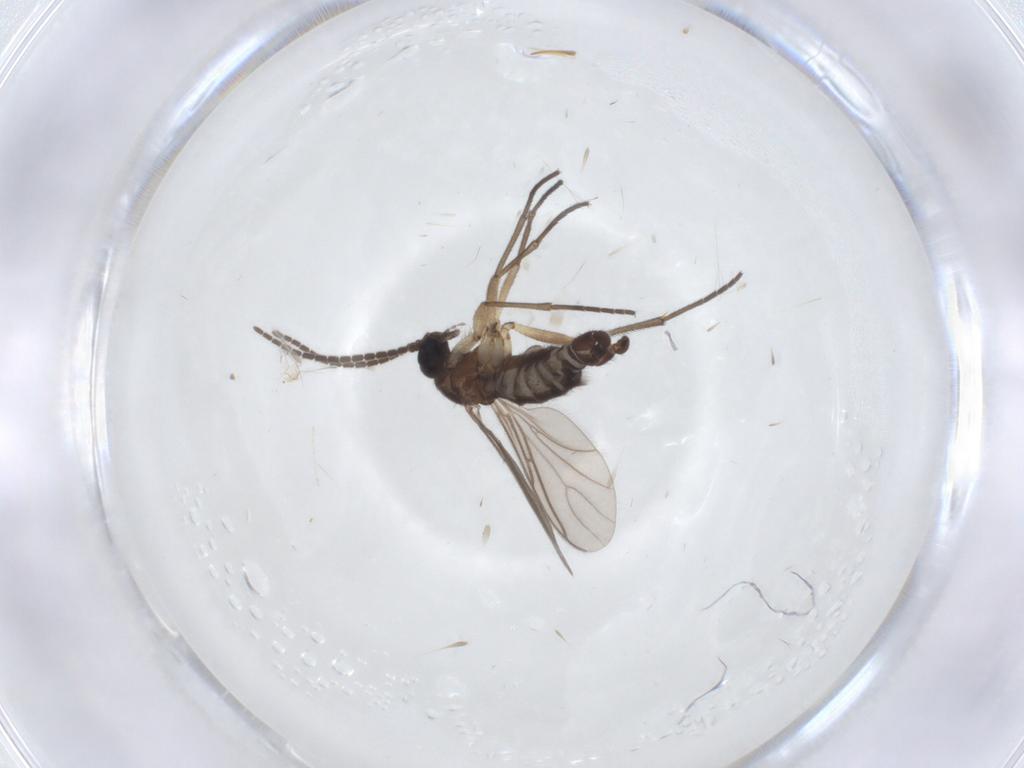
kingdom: Animalia
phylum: Arthropoda
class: Insecta
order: Diptera
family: Sciaridae
